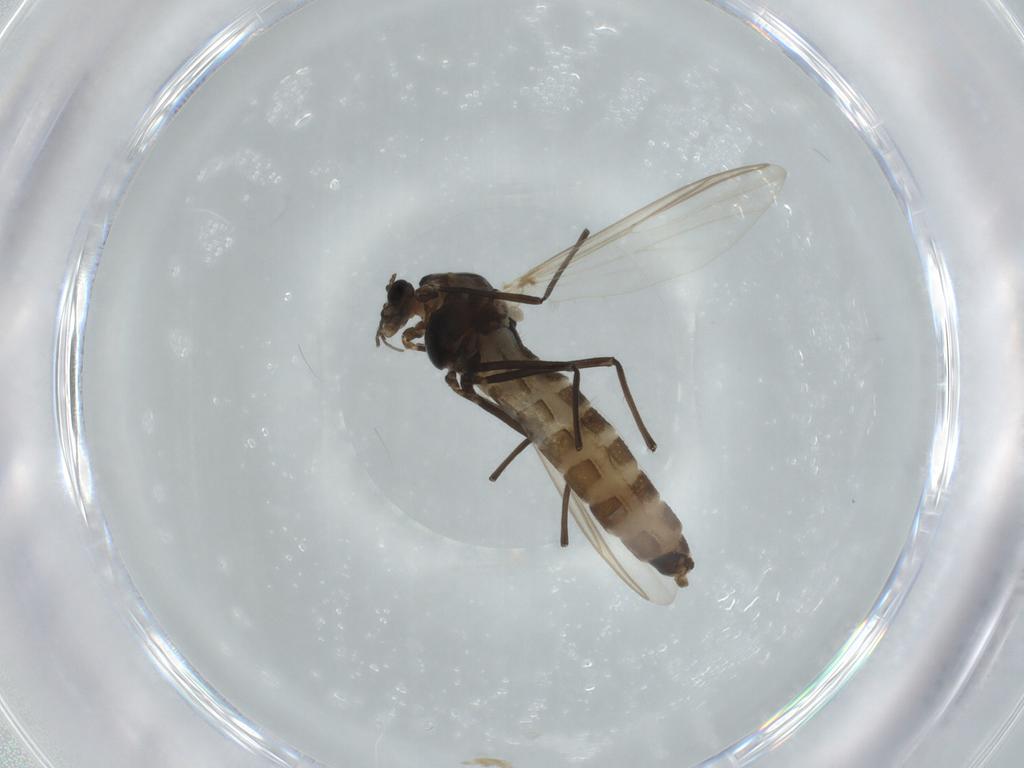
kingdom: Animalia
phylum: Arthropoda
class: Insecta
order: Diptera
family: Chironomidae
